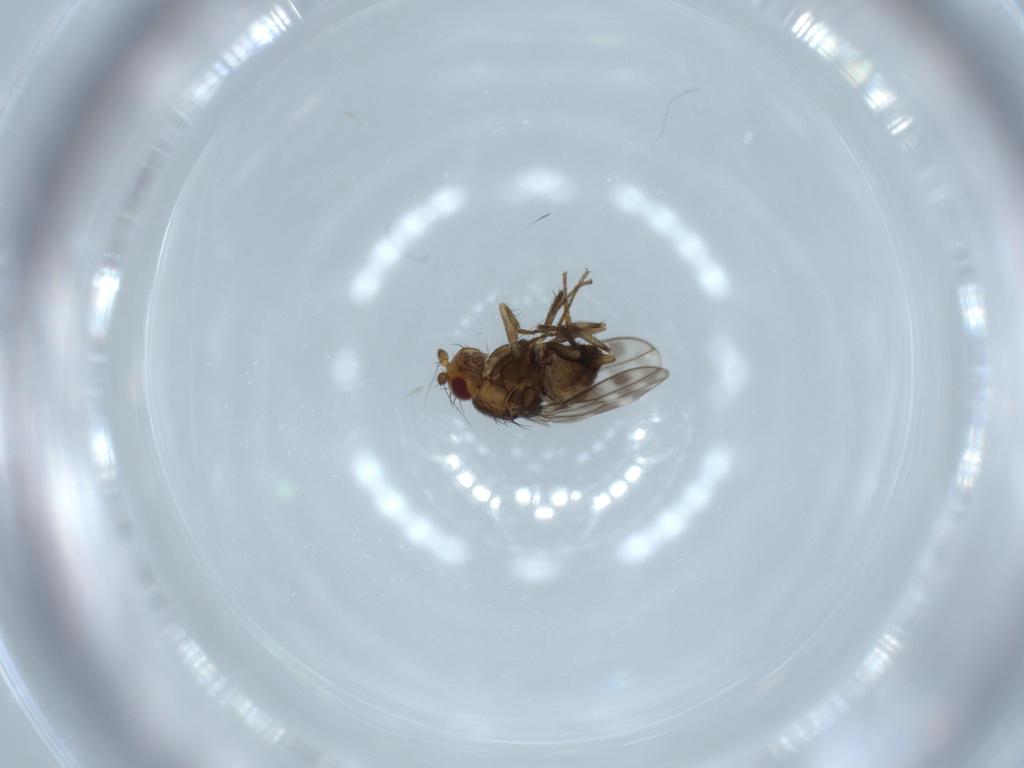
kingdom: Animalia
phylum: Arthropoda
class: Insecta
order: Diptera
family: Sphaeroceridae
